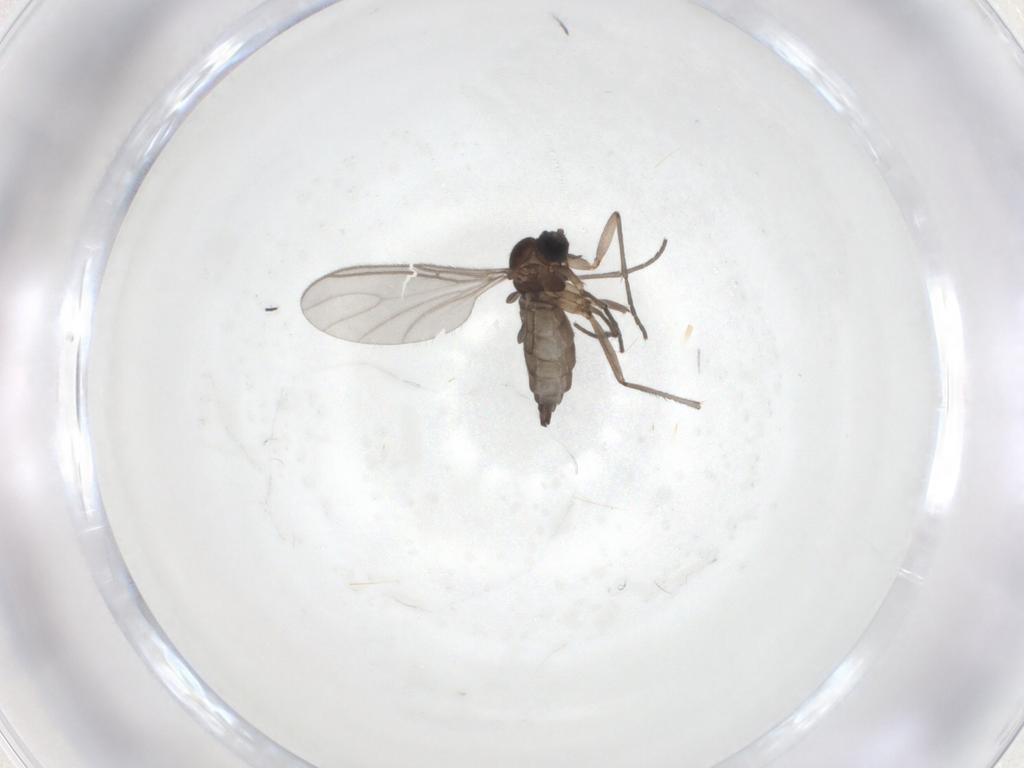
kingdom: Animalia
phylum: Arthropoda
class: Insecta
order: Diptera
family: Sciaridae
